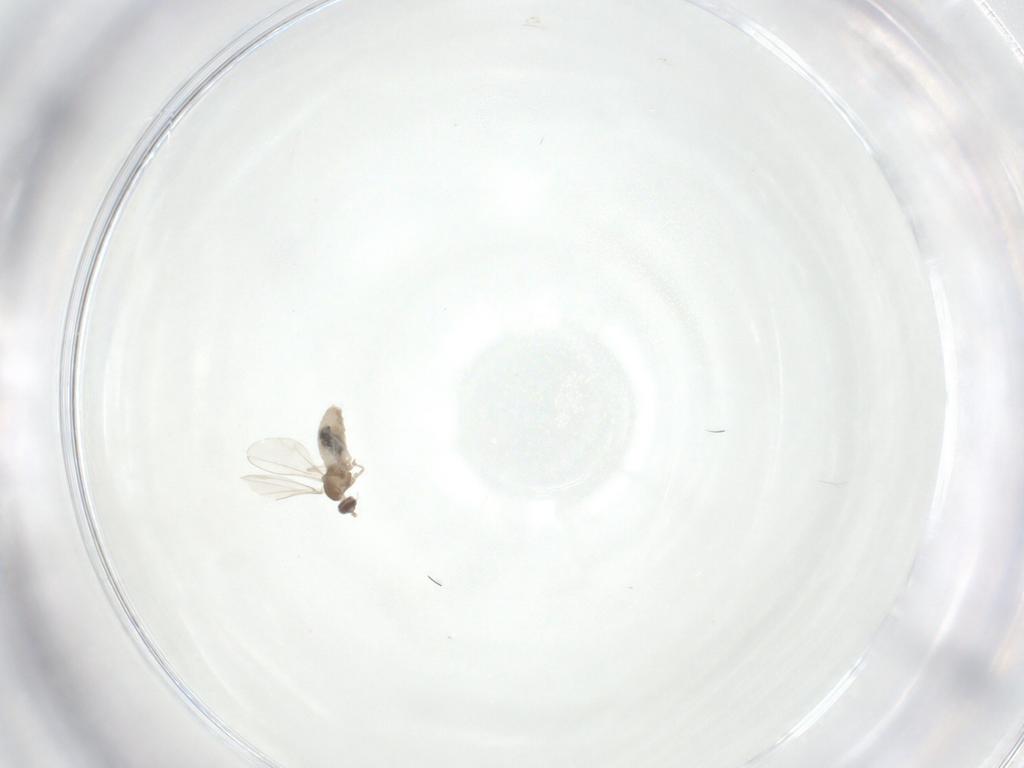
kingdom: Animalia
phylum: Arthropoda
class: Insecta
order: Diptera
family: Cecidomyiidae
